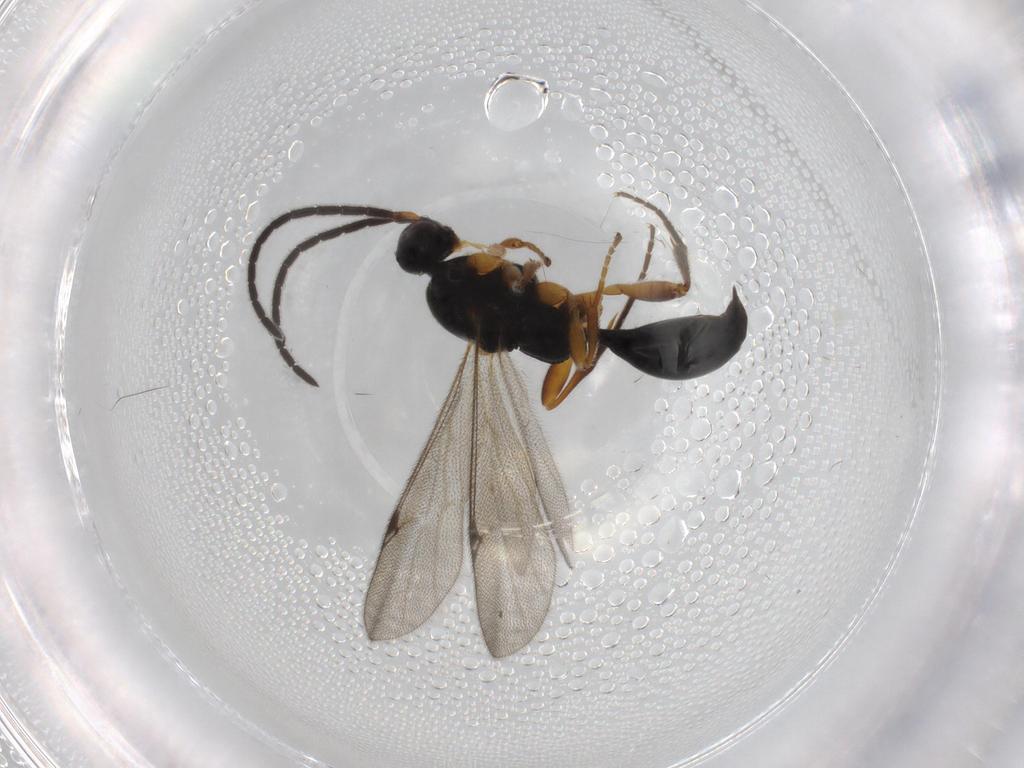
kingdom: Animalia
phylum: Arthropoda
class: Insecta
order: Hymenoptera
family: Proctotrupidae
